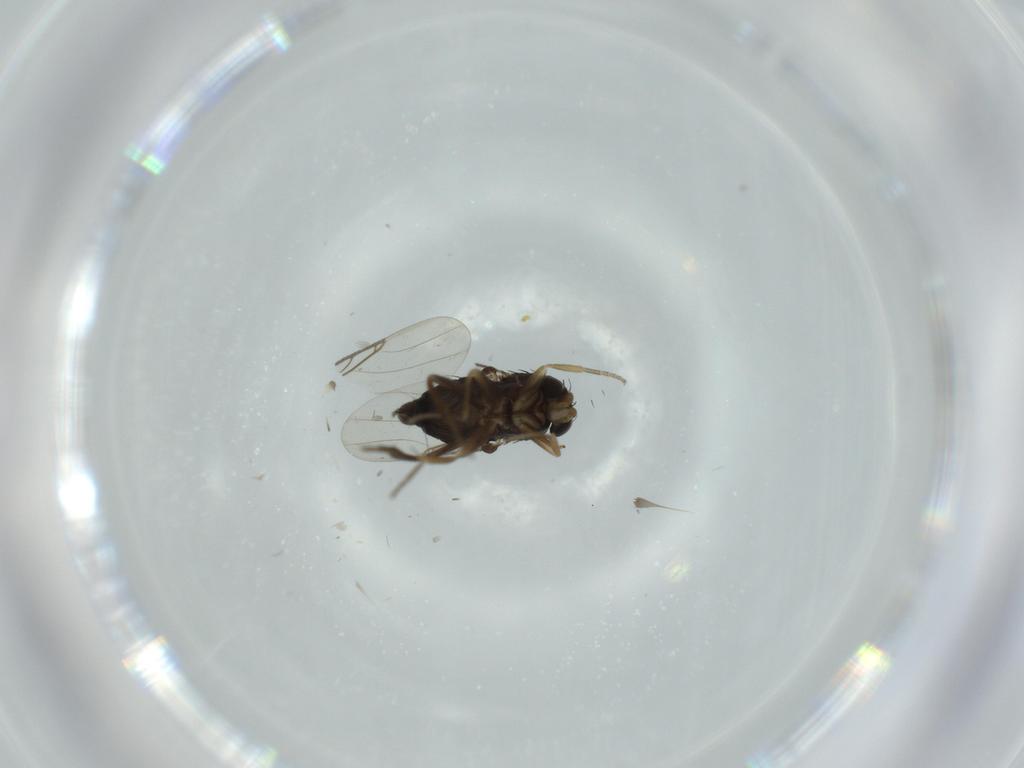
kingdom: Animalia
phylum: Arthropoda
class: Insecta
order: Diptera
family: Phoridae
